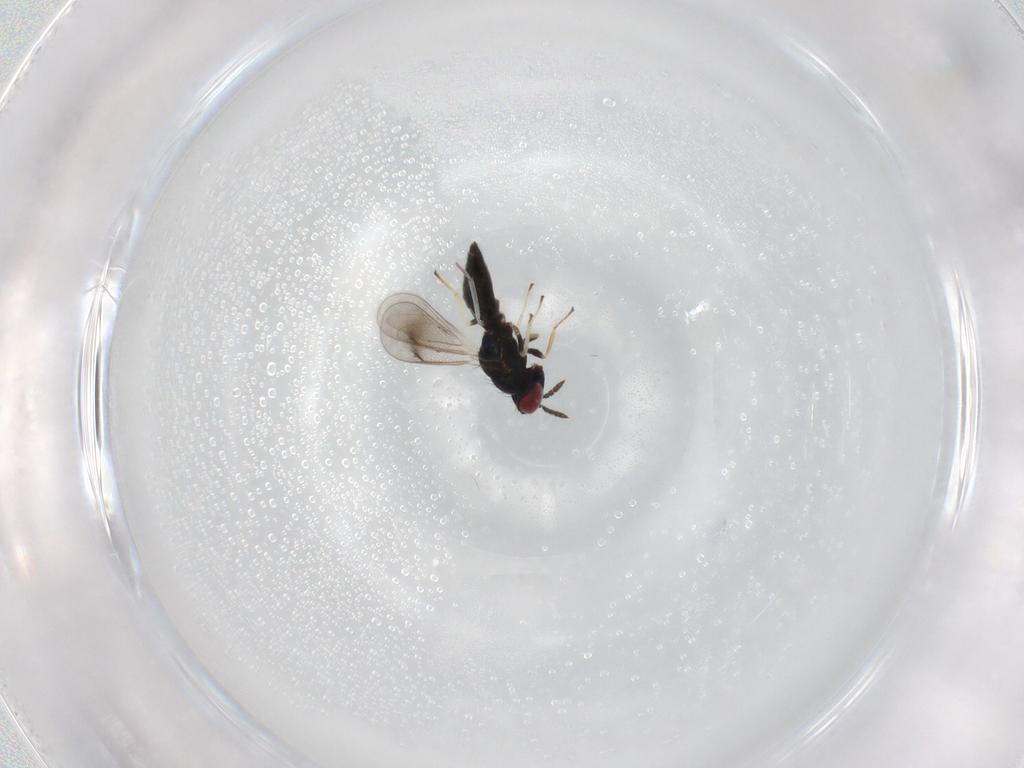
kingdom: Animalia
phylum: Arthropoda
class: Insecta
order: Hymenoptera
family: Eulophidae
